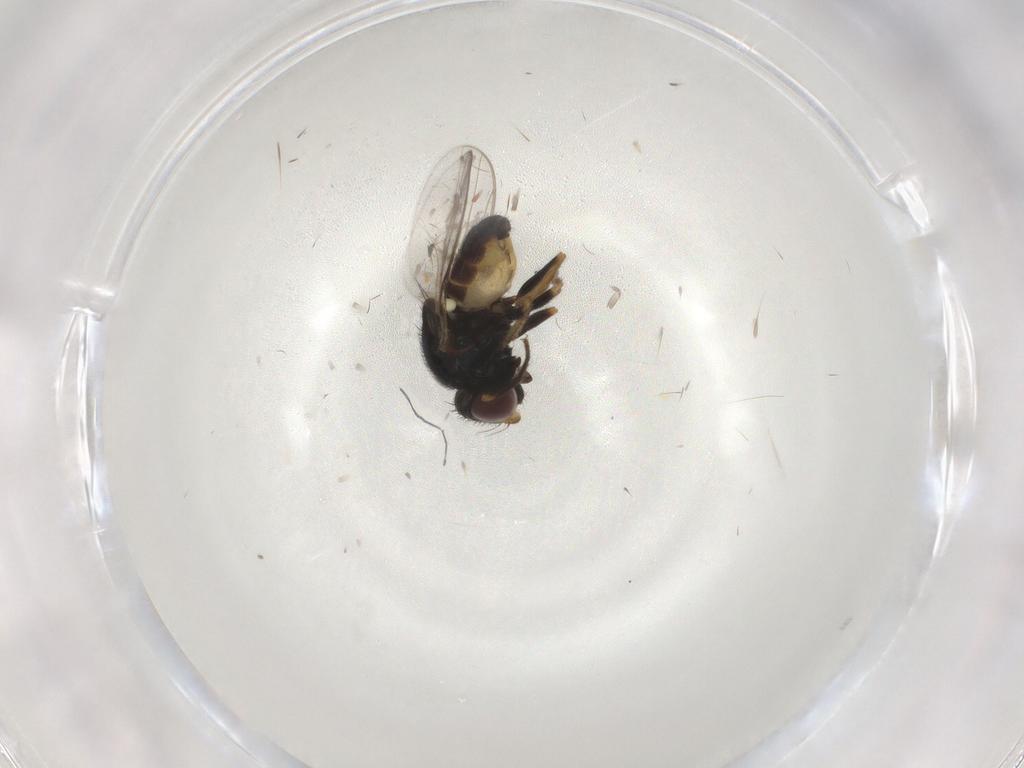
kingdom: Animalia
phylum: Arthropoda
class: Insecta
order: Diptera
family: Chloropidae
